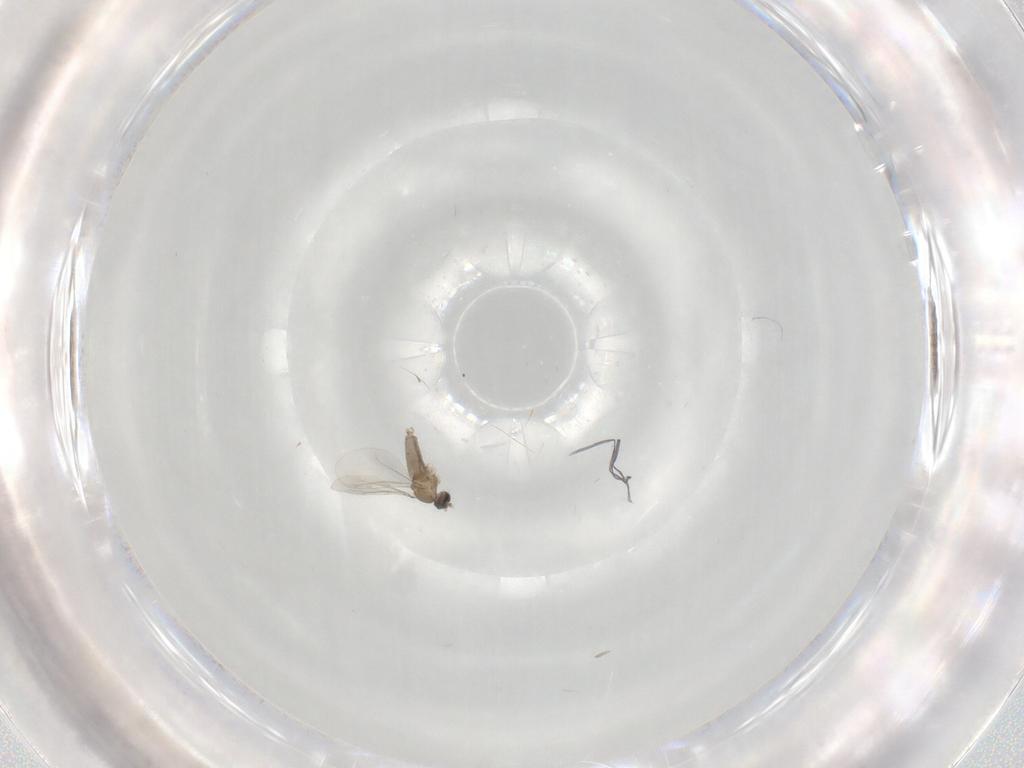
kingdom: Animalia
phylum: Arthropoda
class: Insecta
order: Diptera
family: Cecidomyiidae
